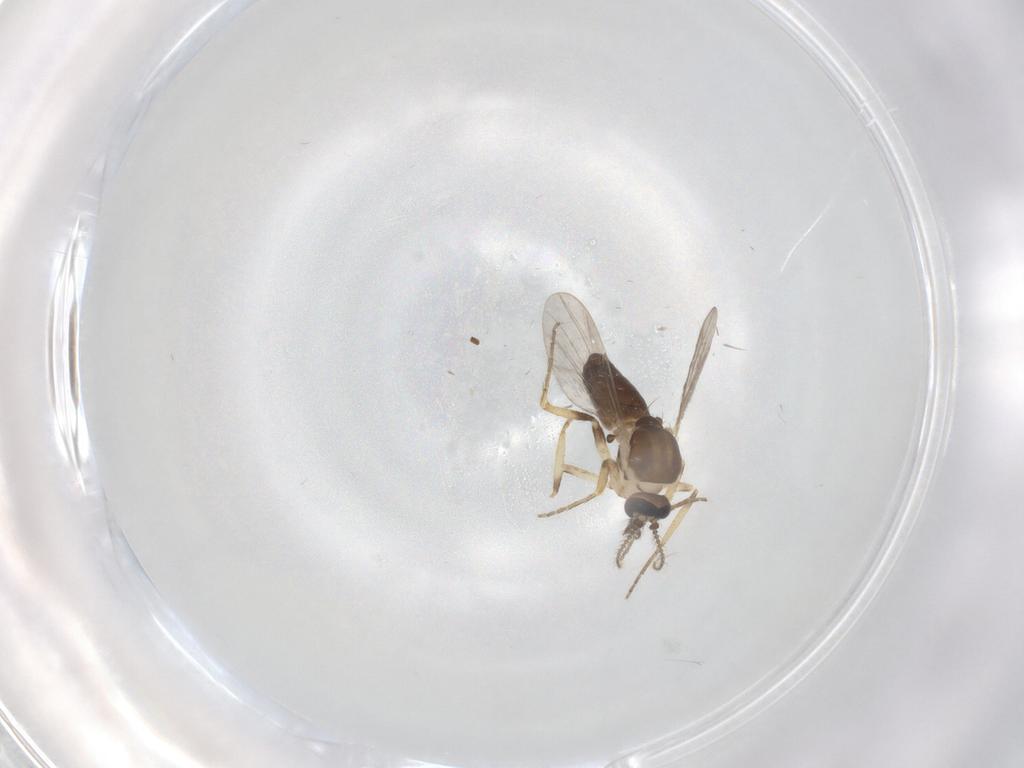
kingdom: Animalia
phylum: Arthropoda
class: Insecta
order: Diptera
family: Ceratopogonidae
